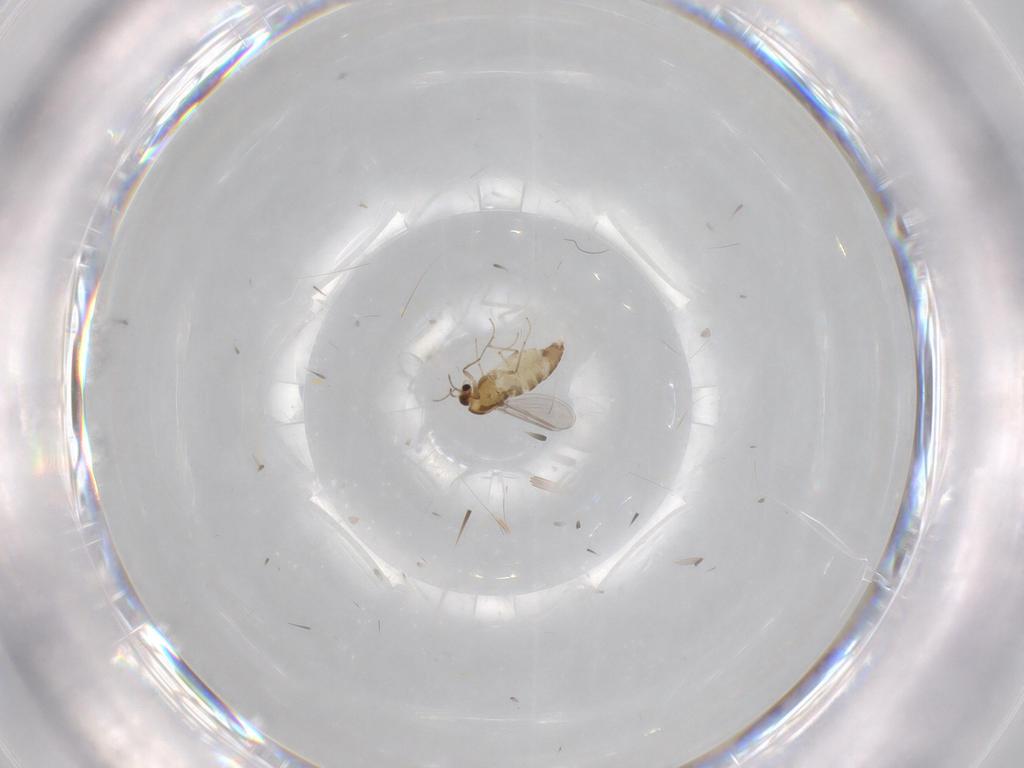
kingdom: Animalia
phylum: Arthropoda
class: Insecta
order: Diptera
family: Chironomidae
